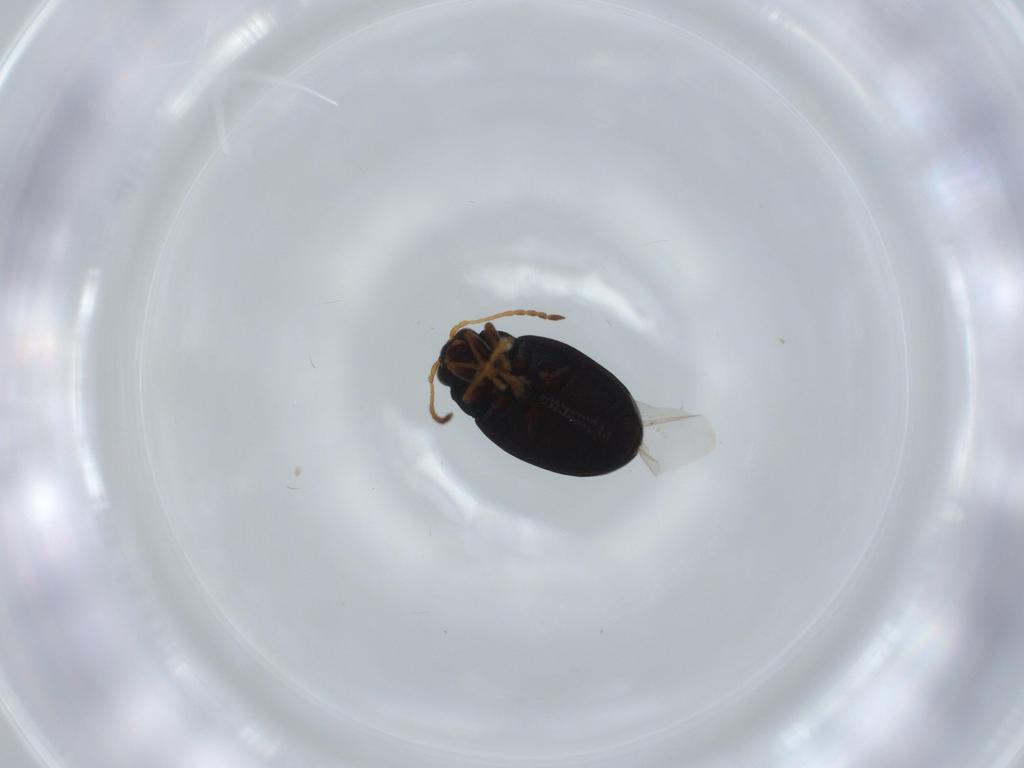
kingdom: Animalia
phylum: Arthropoda
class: Insecta
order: Coleoptera
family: Chrysomelidae
